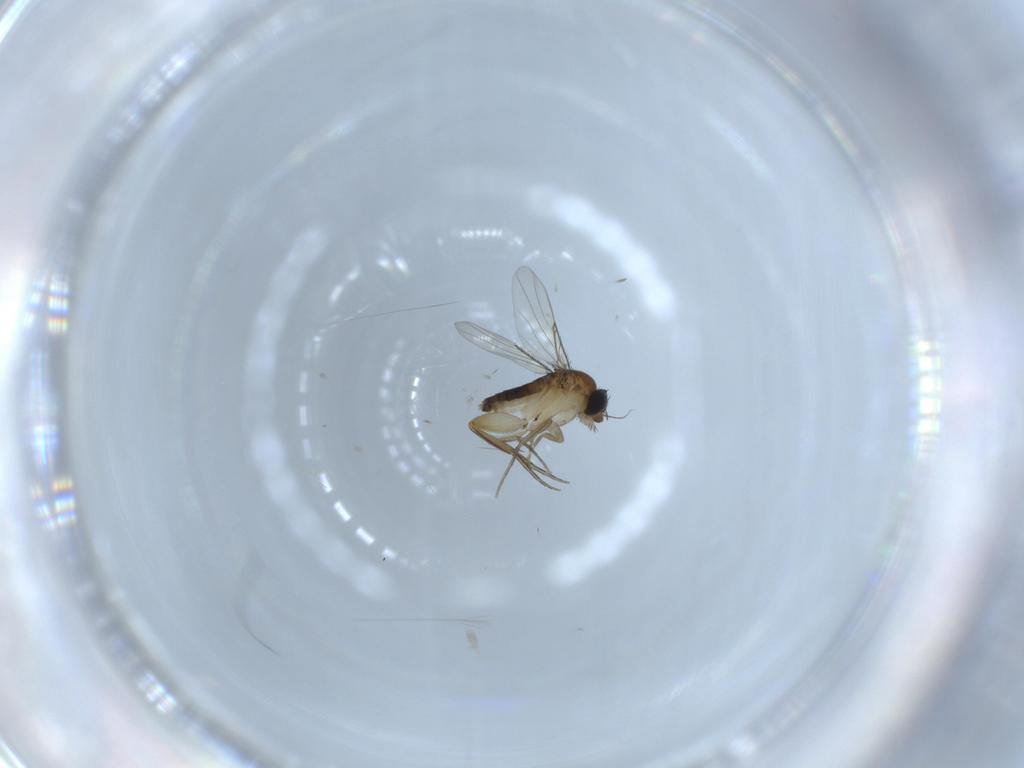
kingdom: Animalia
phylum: Arthropoda
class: Insecta
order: Diptera
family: Phoridae
